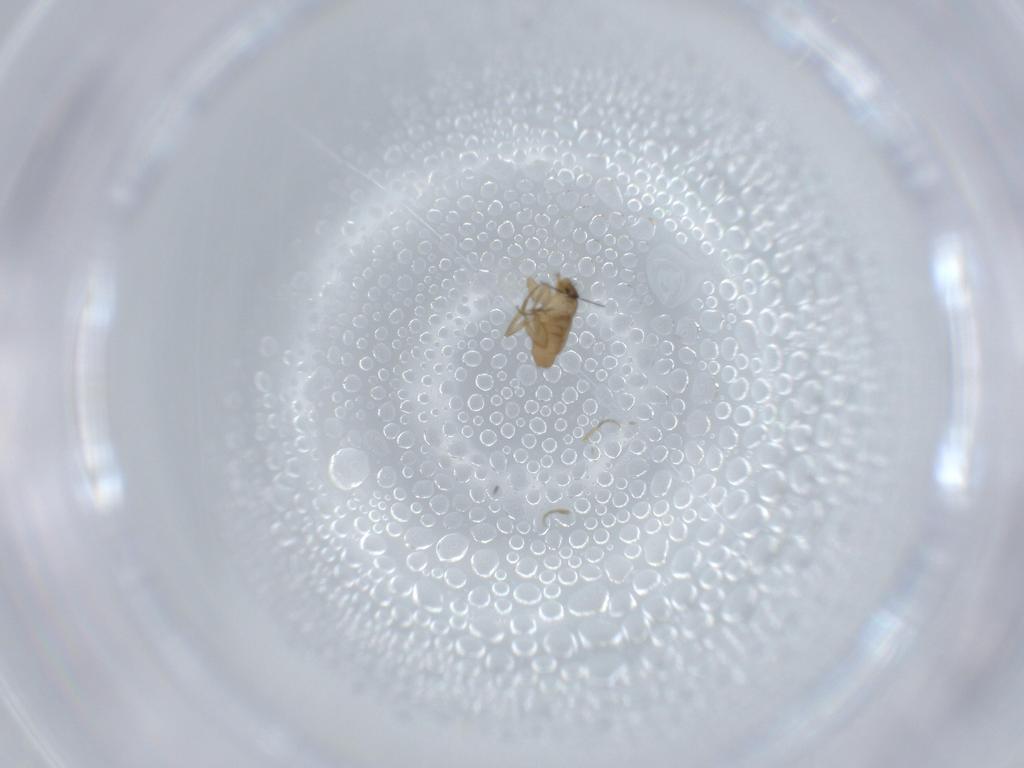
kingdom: Animalia
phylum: Arthropoda
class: Insecta
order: Diptera
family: Phoridae
